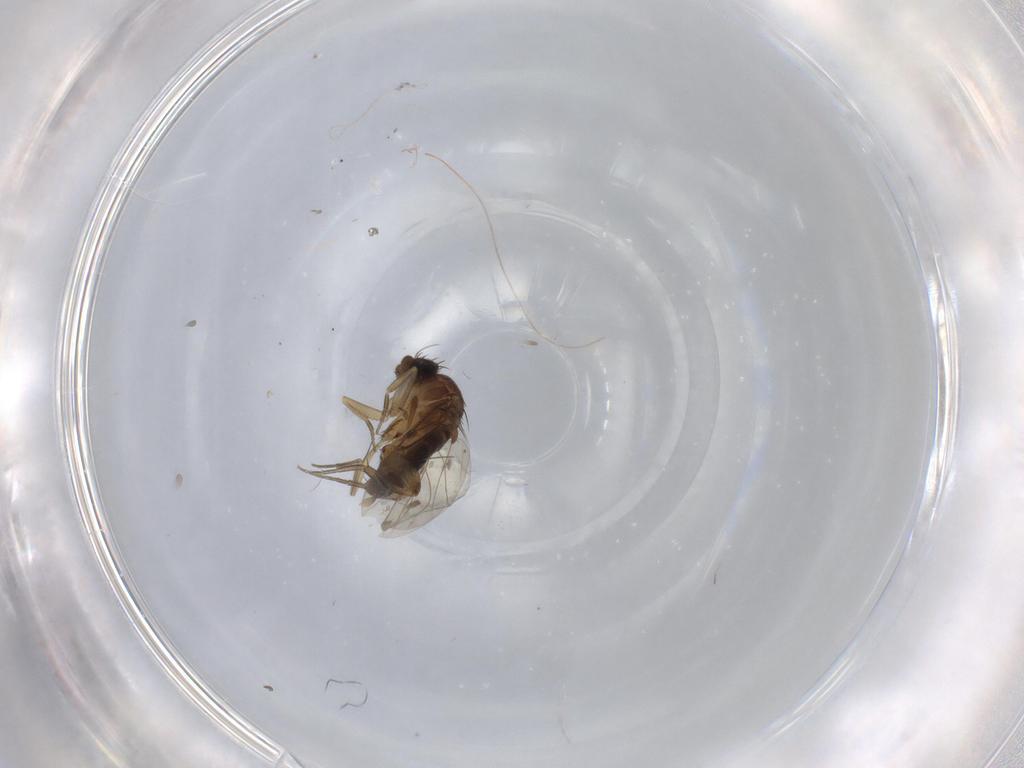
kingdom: Animalia
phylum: Arthropoda
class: Insecta
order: Diptera
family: Phoridae
